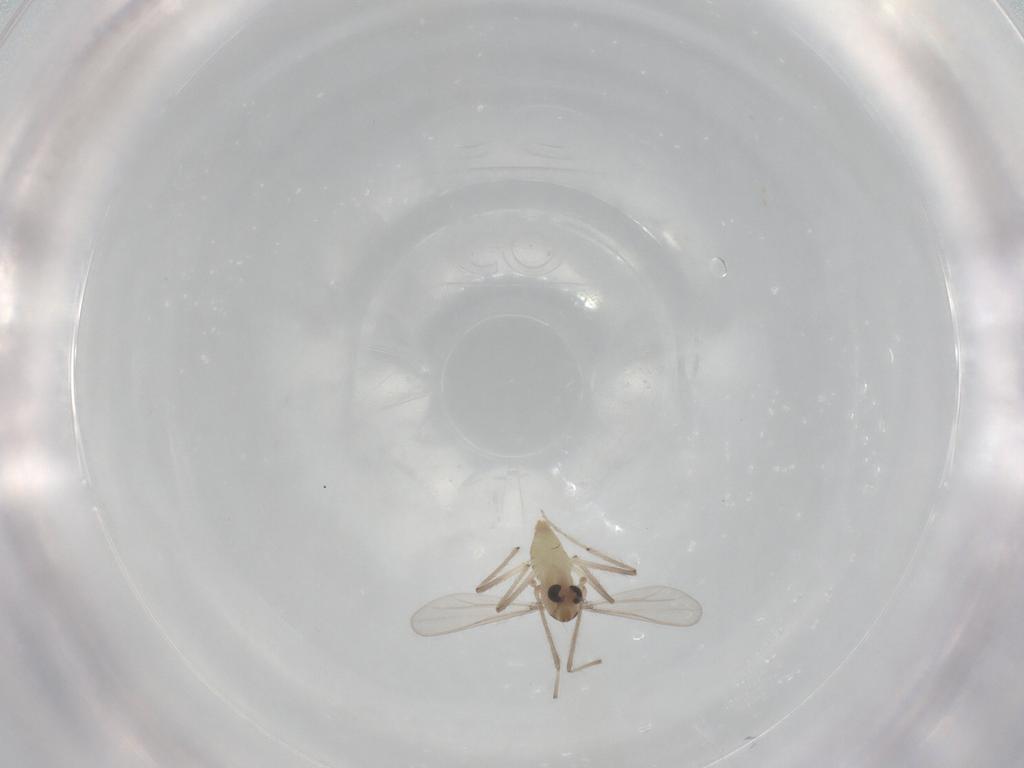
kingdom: Animalia
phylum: Arthropoda
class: Insecta
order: Diptera
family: Chironomidae
